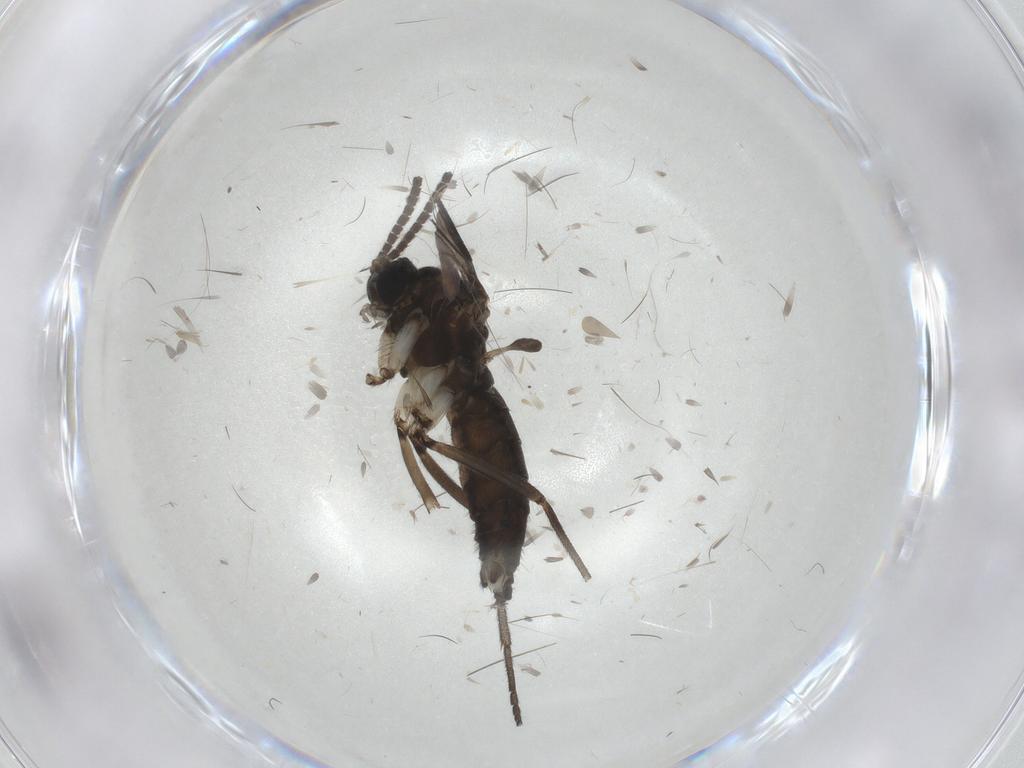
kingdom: Animalia
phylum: Arthropoda
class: Insecta
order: Diptera
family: Sciaridae
